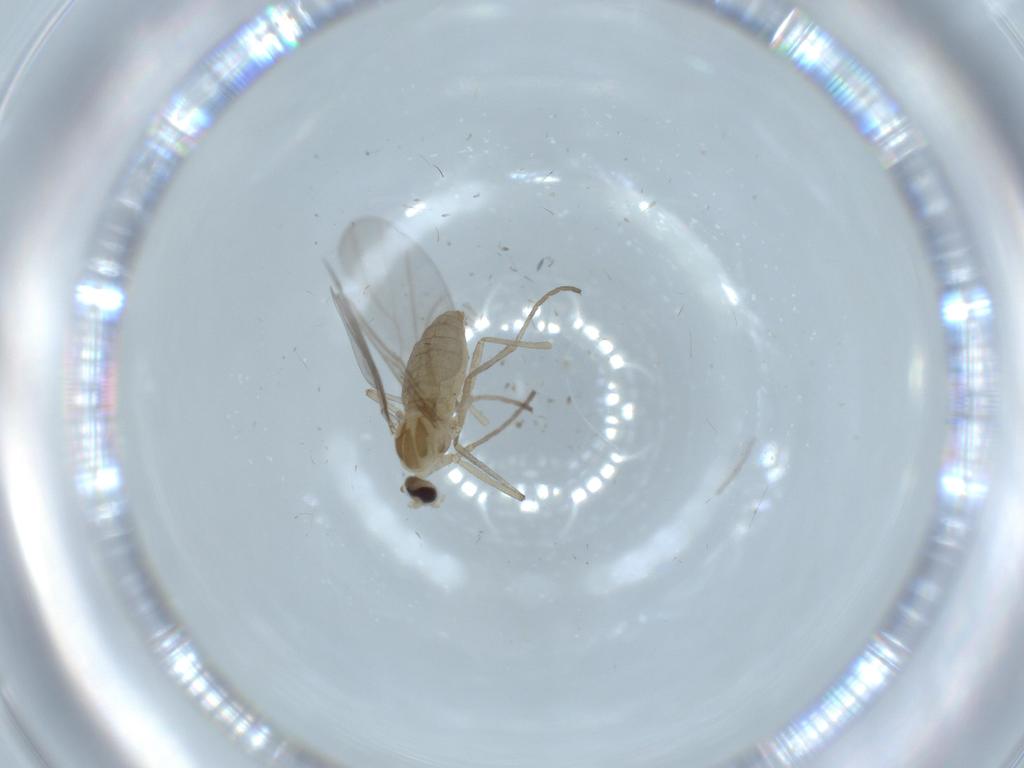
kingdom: Animalia
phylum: Arthropoda
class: Insecta
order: Diptera
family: Cecidomyiidae
